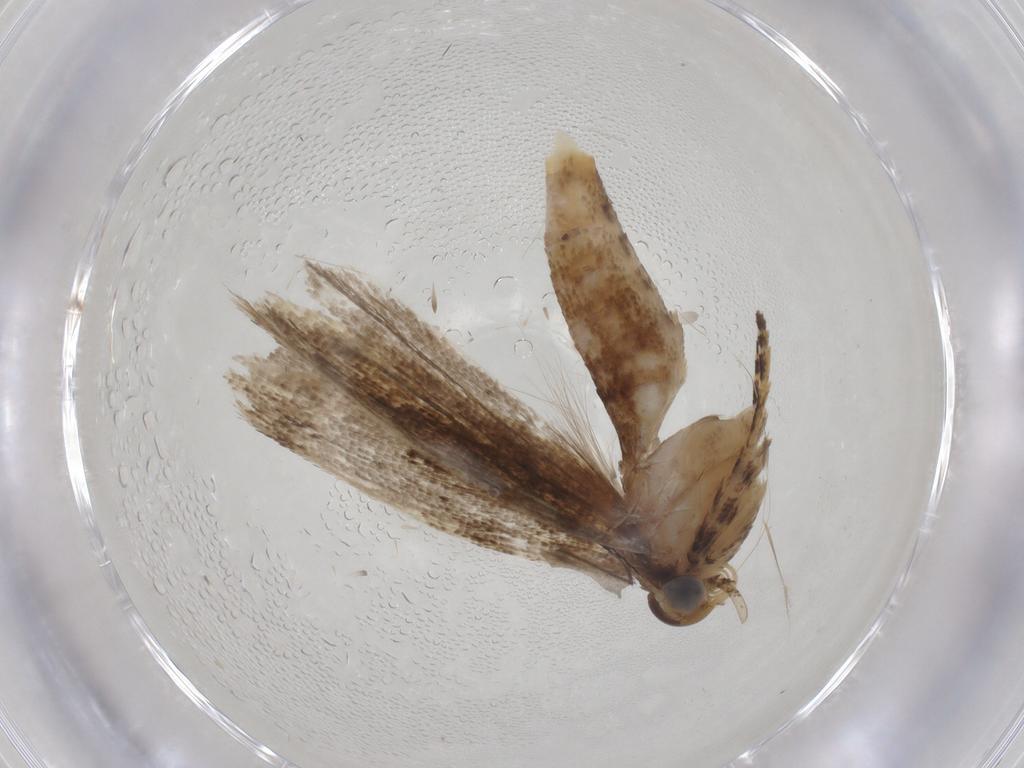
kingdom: Animalia
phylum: Arthropoda
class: Insecta
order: Lepidoptera
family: Gelechiidae
